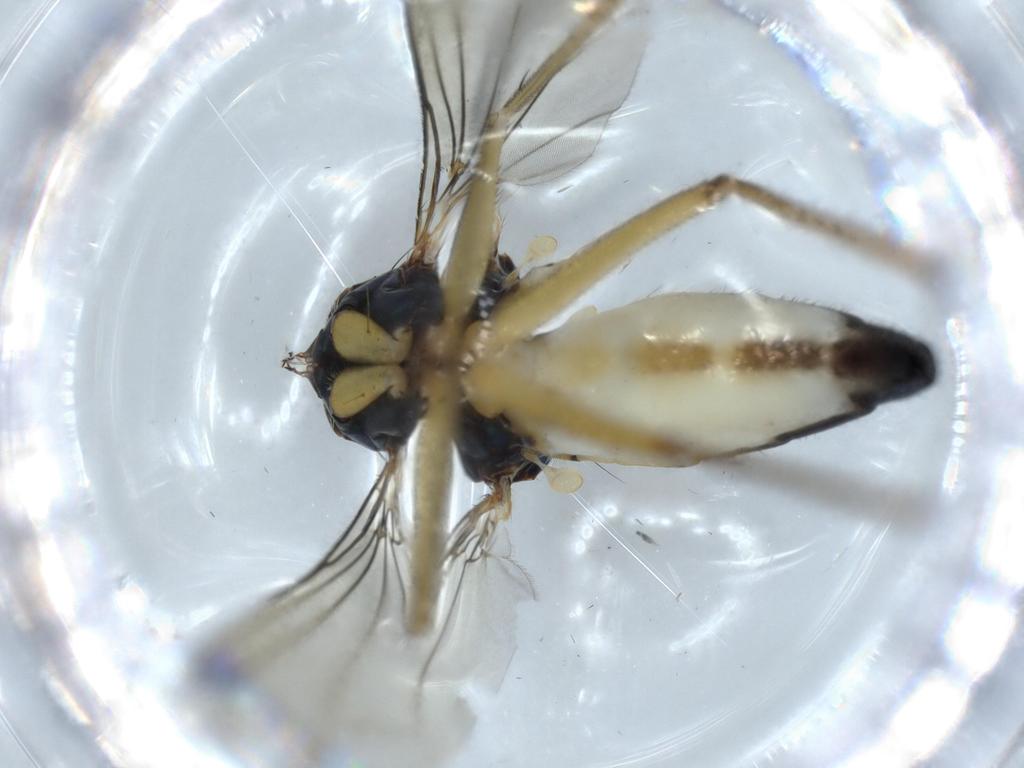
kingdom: Animalia
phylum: Arthropoda
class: Insecta
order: Diptera
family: Dolichopodidae
